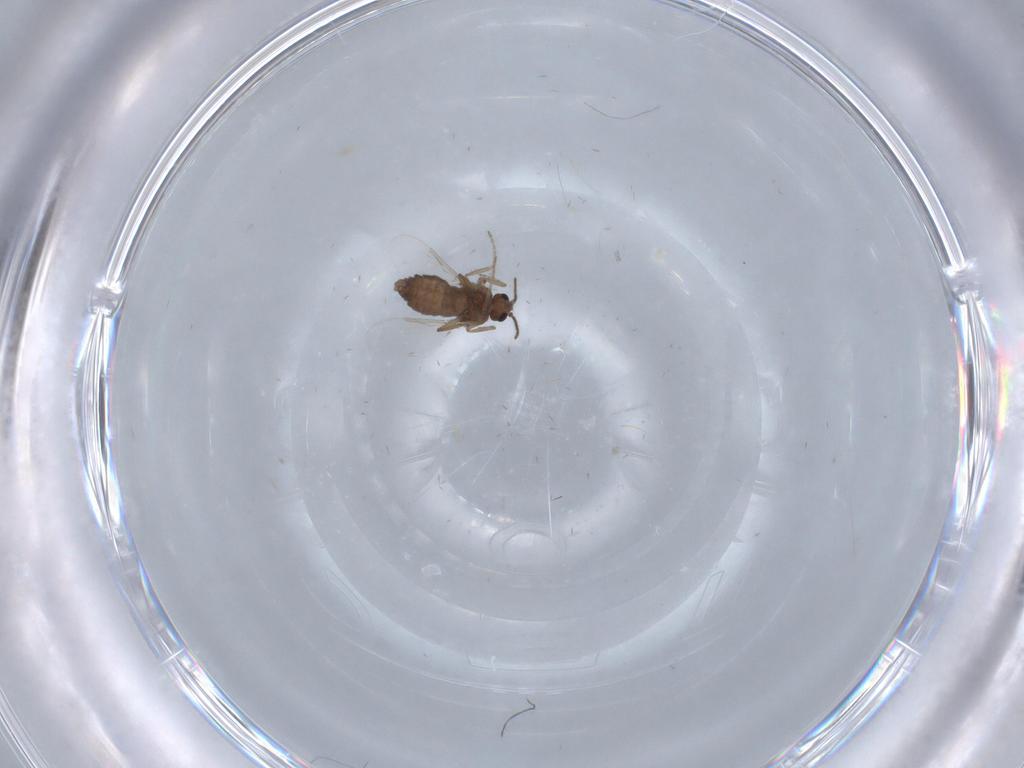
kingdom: Animalia
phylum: Arthropoda
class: Insecta
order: Diptera
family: Ceratopogonidae
